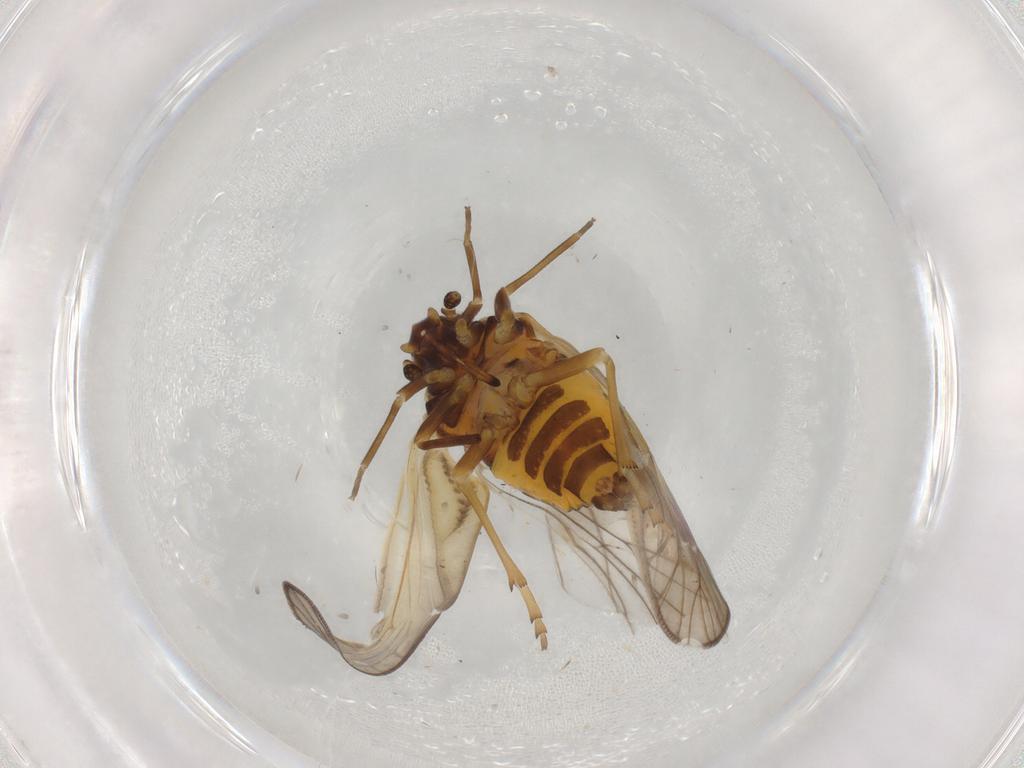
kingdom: Animalia
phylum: Arthropoda
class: Insecta
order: Hemiptera
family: Meenoplidae
